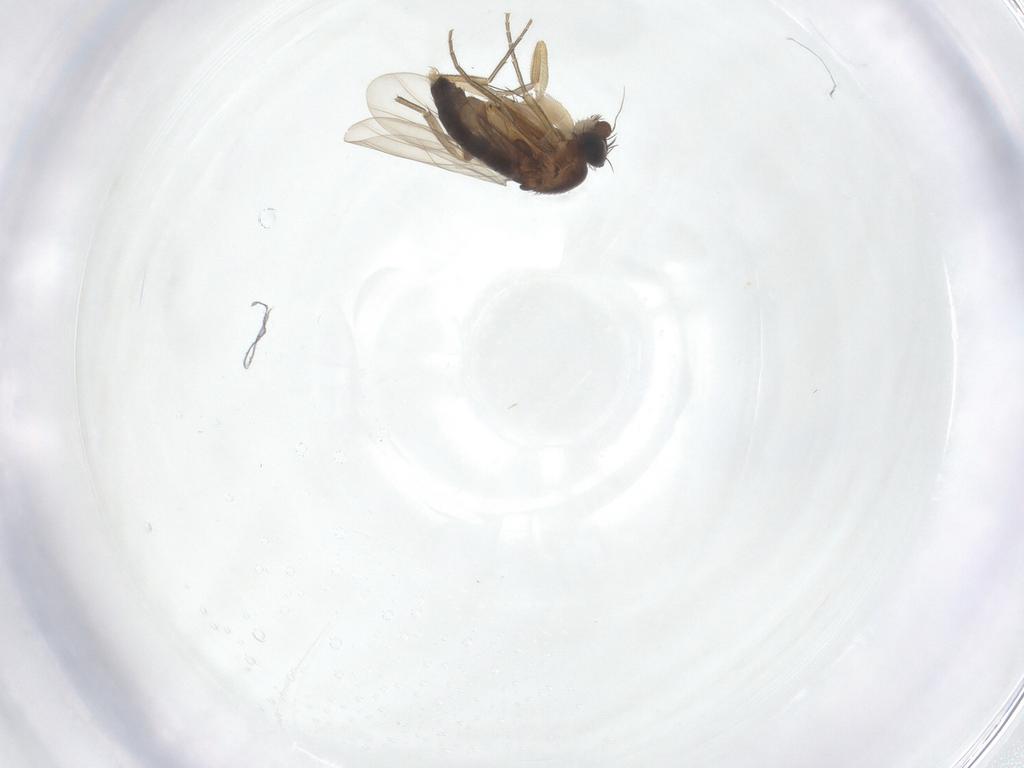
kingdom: Animalia
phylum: Arthropoda
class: Insecta
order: Diptera
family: Phoridae
